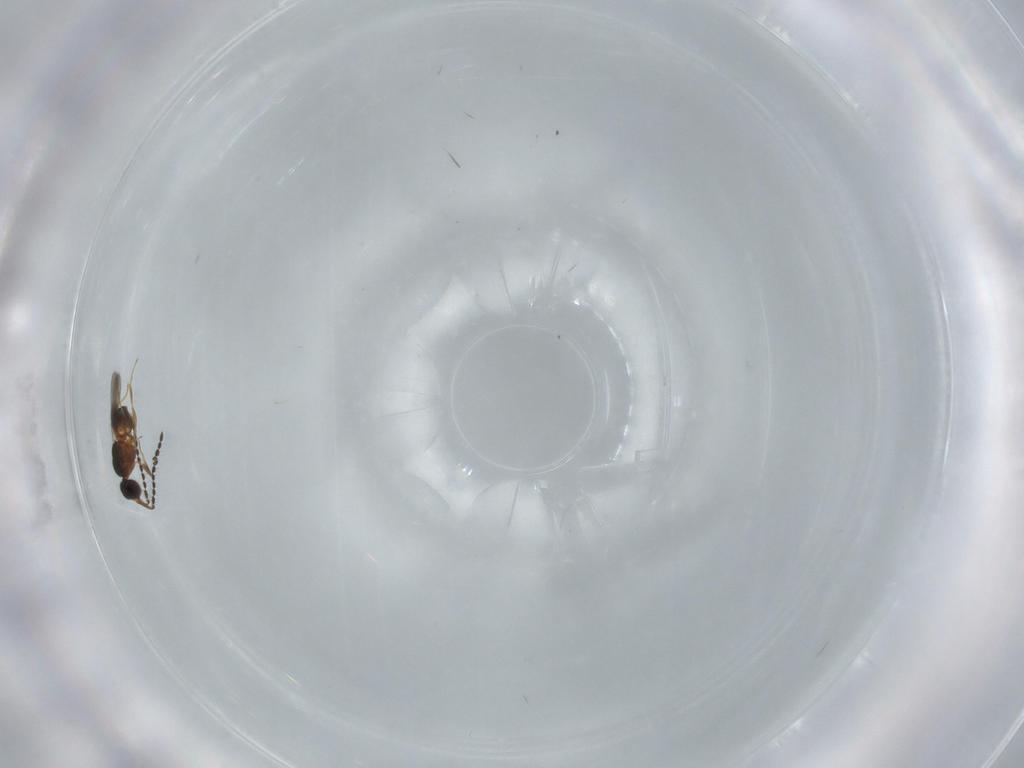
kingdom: Animalia
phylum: Arthropoda
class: Insecta
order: Hymenoptera
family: Ceraphronidae
